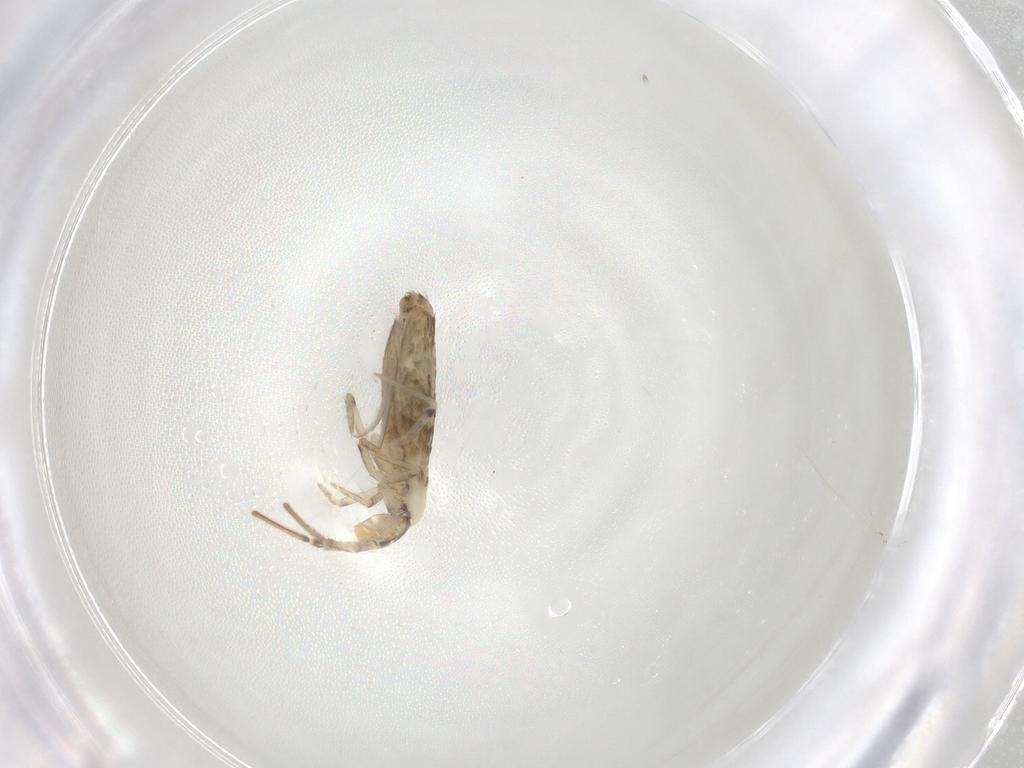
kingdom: Animalia
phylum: Arthropoda
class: Collembola
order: Entomobryomorpha
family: Entomobryidae
